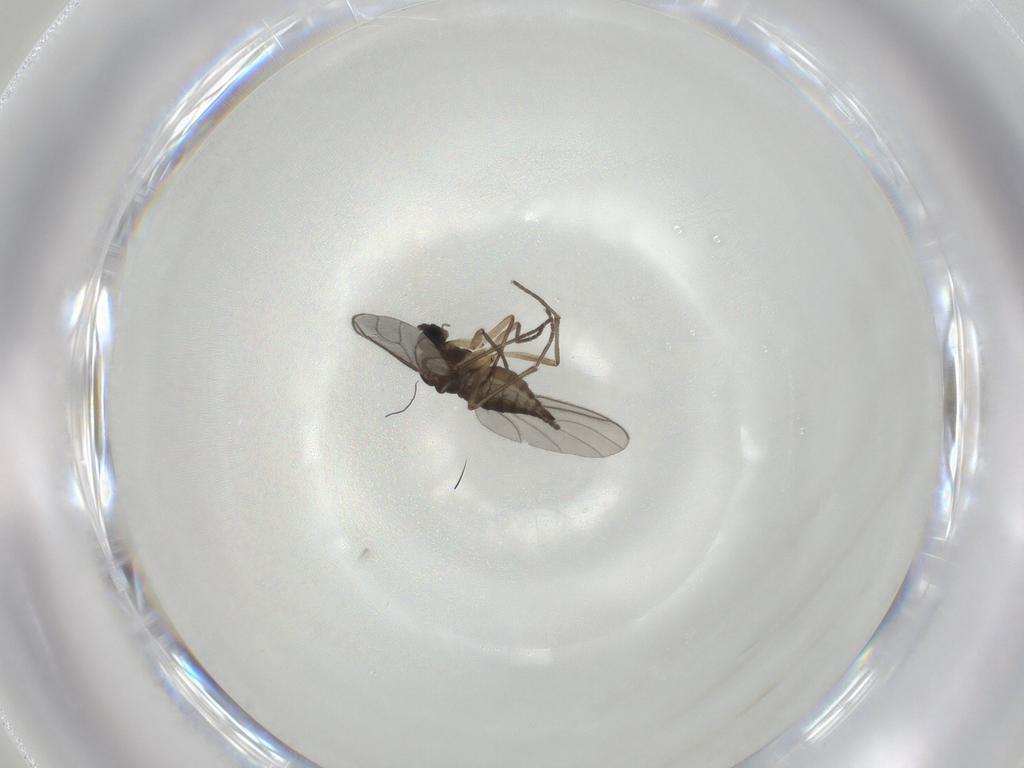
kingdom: Animalia
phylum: Arthropoda
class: Insecta
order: Diptera
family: Sciaridae
